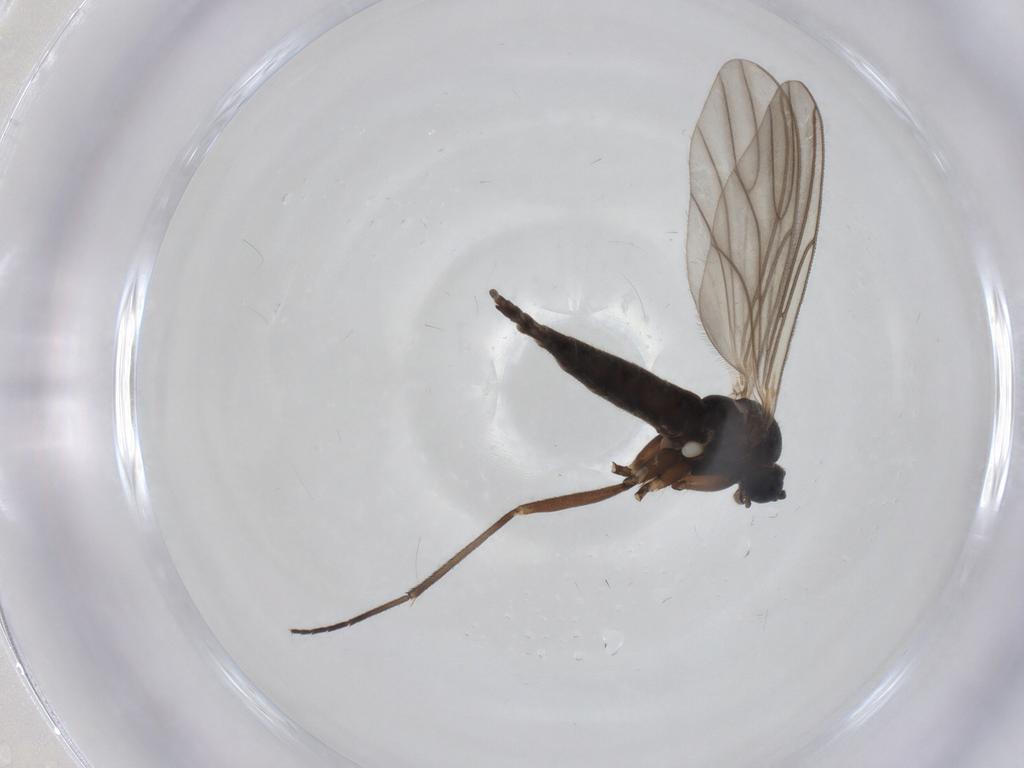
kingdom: Animalia
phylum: Arthropoda
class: Insecta
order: Diptera
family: Sciaridae
